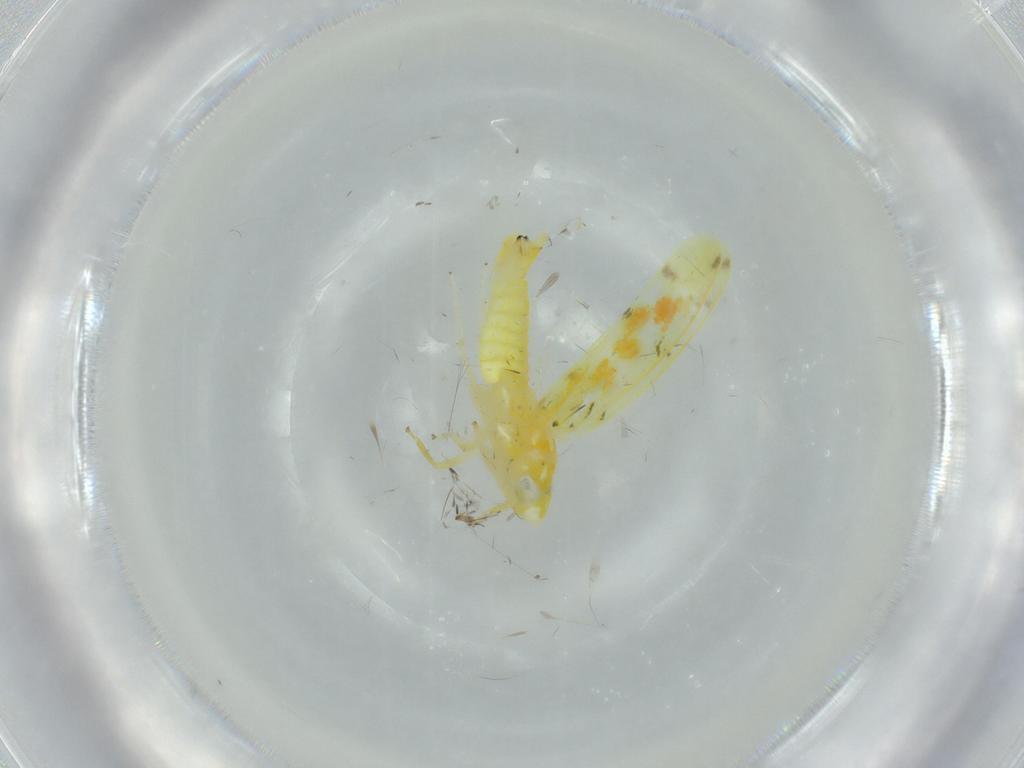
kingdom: Animalia
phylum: Arthropoda
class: Insecta
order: Hemiptera
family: Cicadellidae
